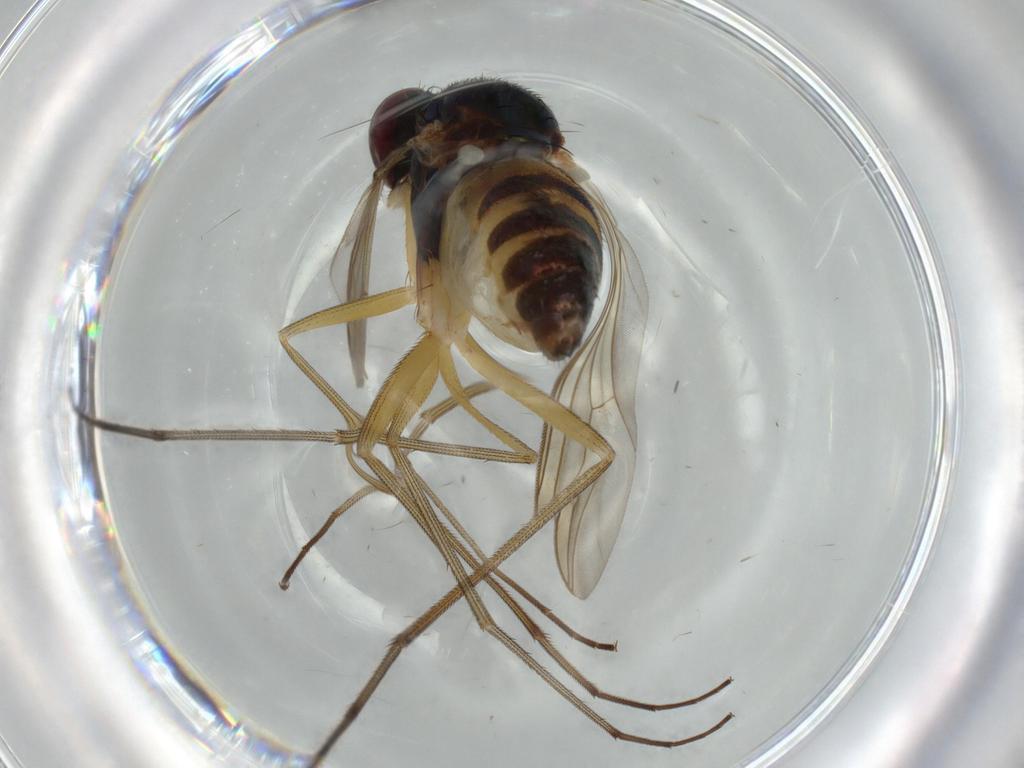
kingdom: Animalia
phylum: Arthropoda
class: Insecta
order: Diptera
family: Dolichopodidae
